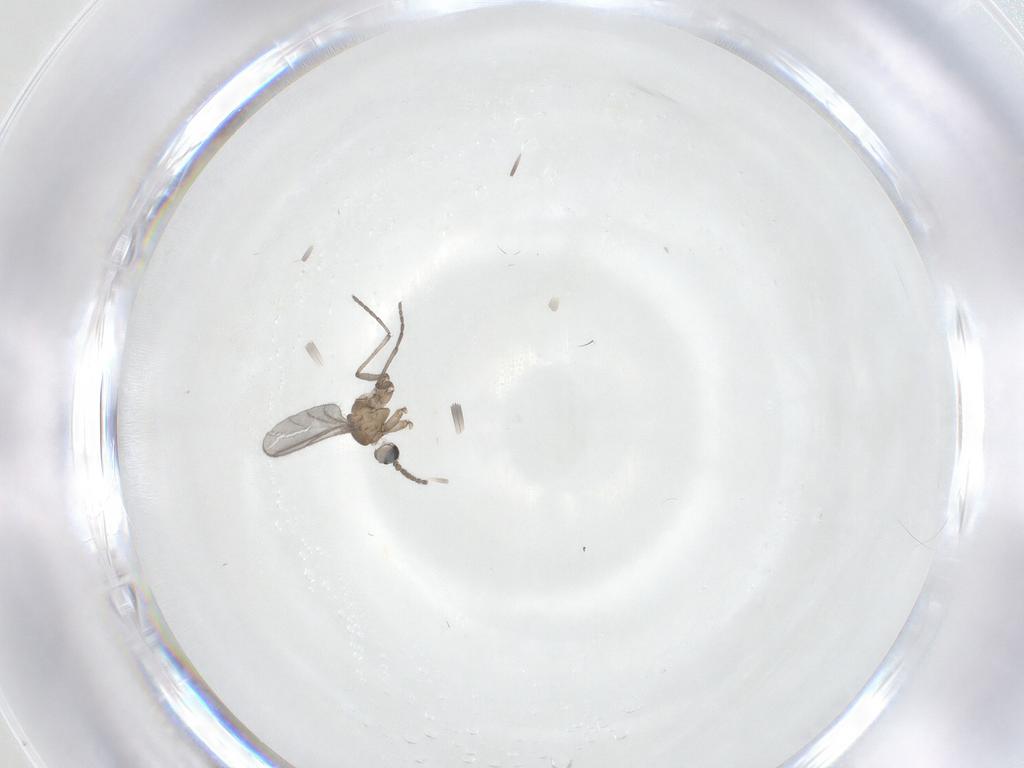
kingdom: Animalia
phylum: Arthropoda
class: Insecta
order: Diptera
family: Sciaridae
